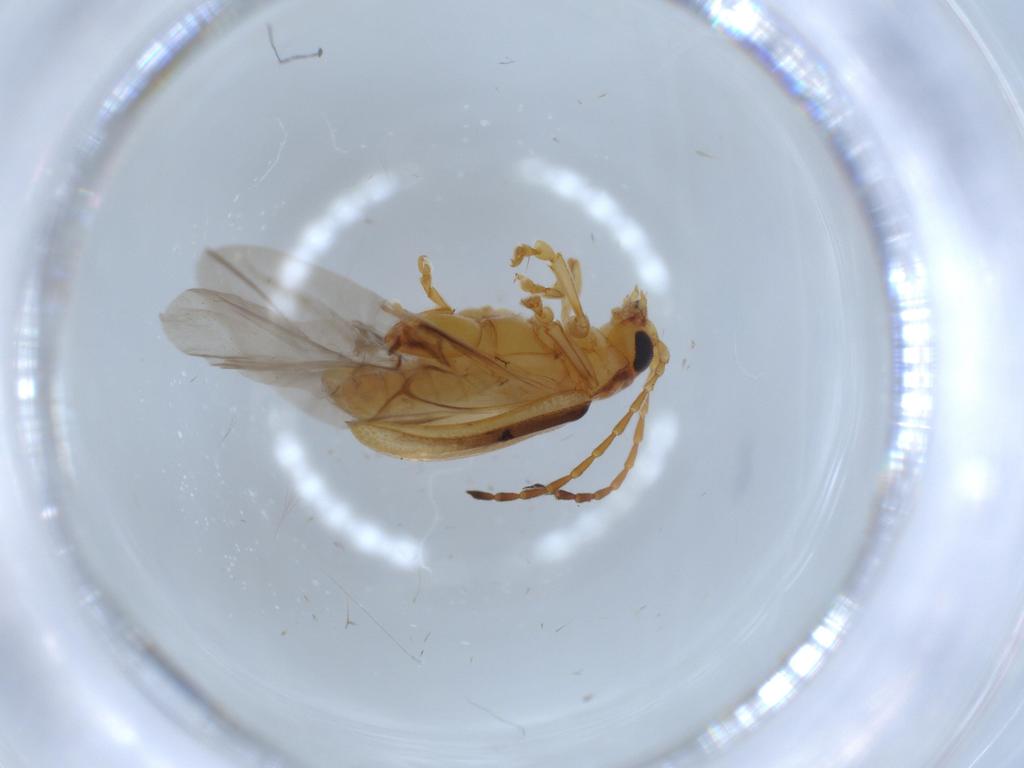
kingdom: Animalia
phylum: Arthropoda
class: Insecta
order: Coleoptera
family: Chrysomelidae
